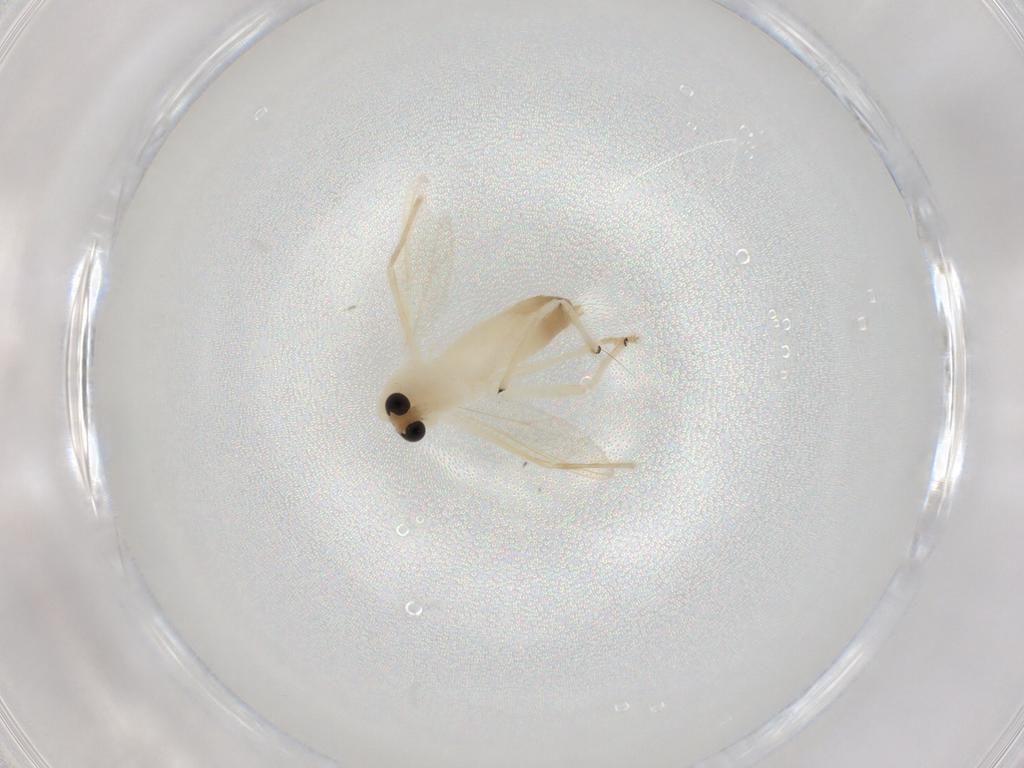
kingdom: Animalia
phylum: Arthropoda
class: Insecta
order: Diptera
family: Chironomidae
